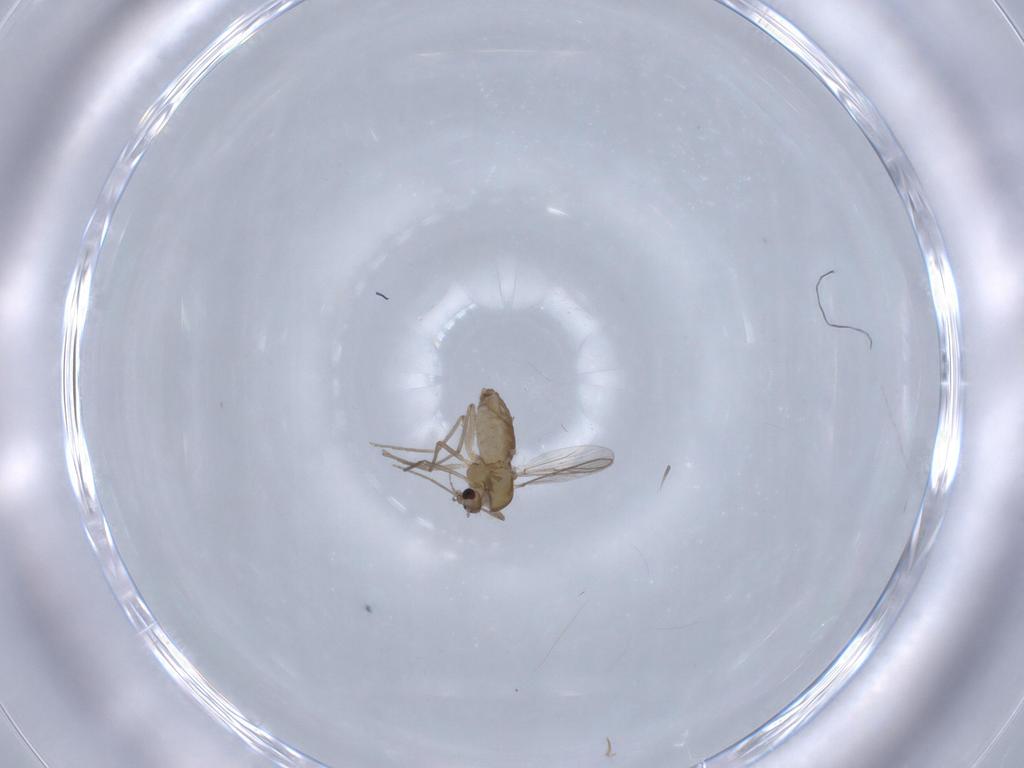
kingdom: Animalia
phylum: Arthropoda
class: Insecta
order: Diptera
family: Chironomidae
